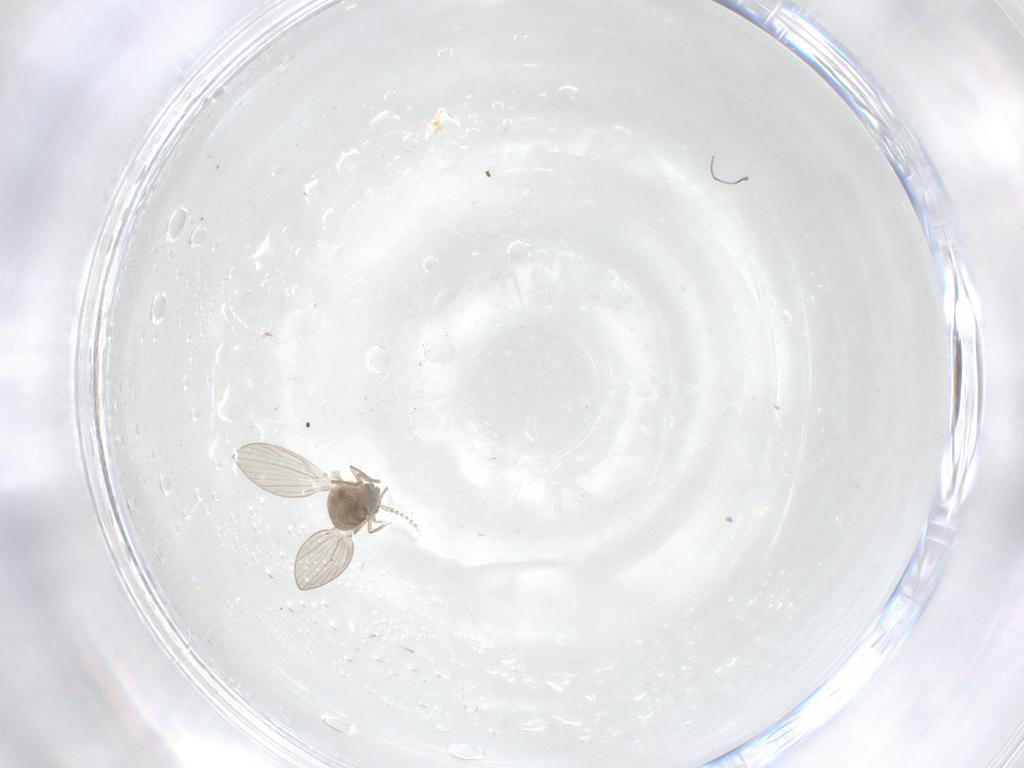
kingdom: Animalia
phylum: Arthropoda
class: Insecta
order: Diptera
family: Psychodidae
